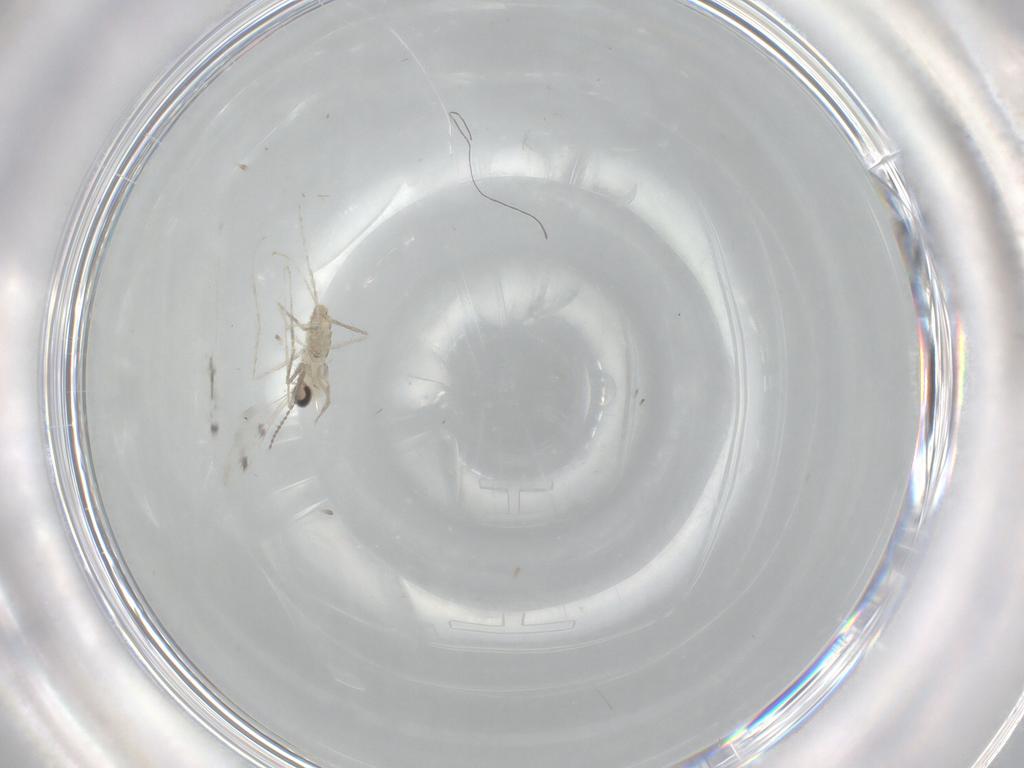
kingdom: Animalia
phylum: Arthropoda
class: Insecta
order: Diptera
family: Cecidomyiidae
